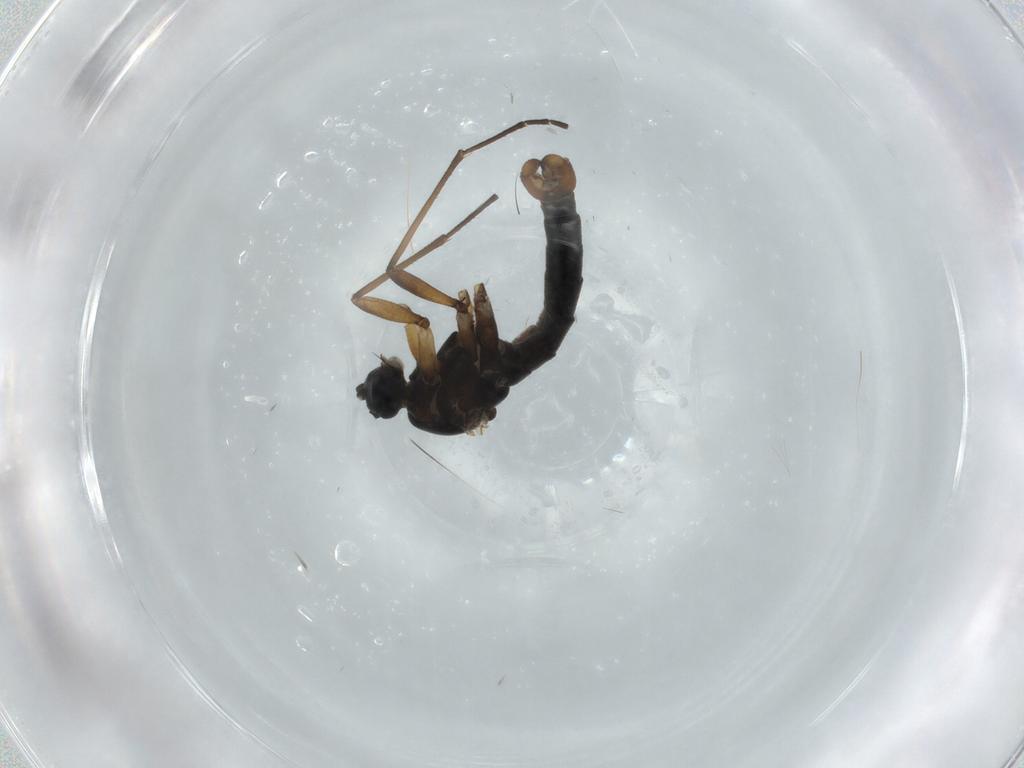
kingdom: Animalia
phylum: Arthropoda
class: Insecta
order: Diptera
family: Sciaridae
